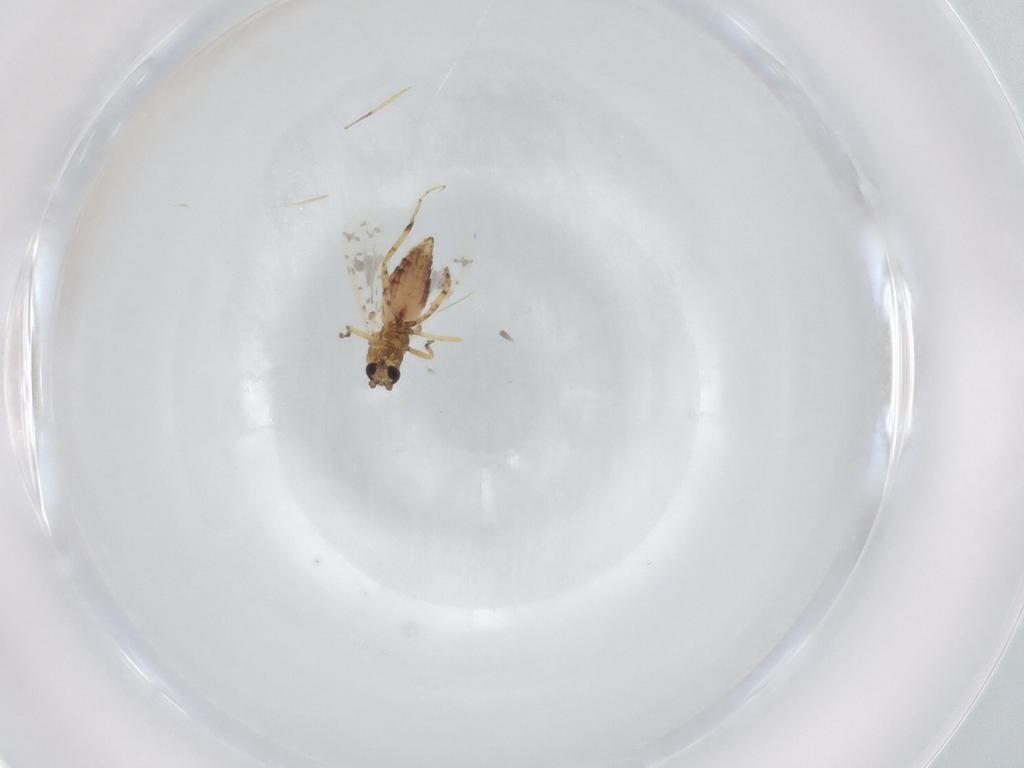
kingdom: Animalia
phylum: Arthropoda
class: Insecta
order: Diptera
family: Ceratopogonidae
